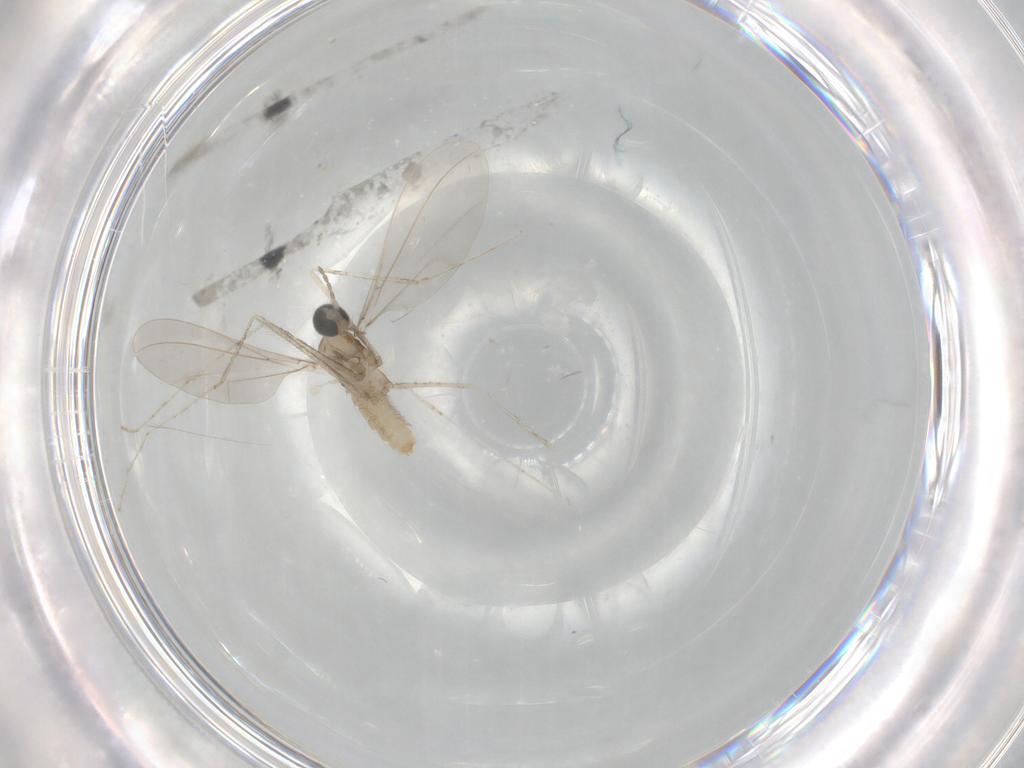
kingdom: Animalia
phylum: Arthropoda
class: Insecta
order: Diptera
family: Cecidomyiidae
